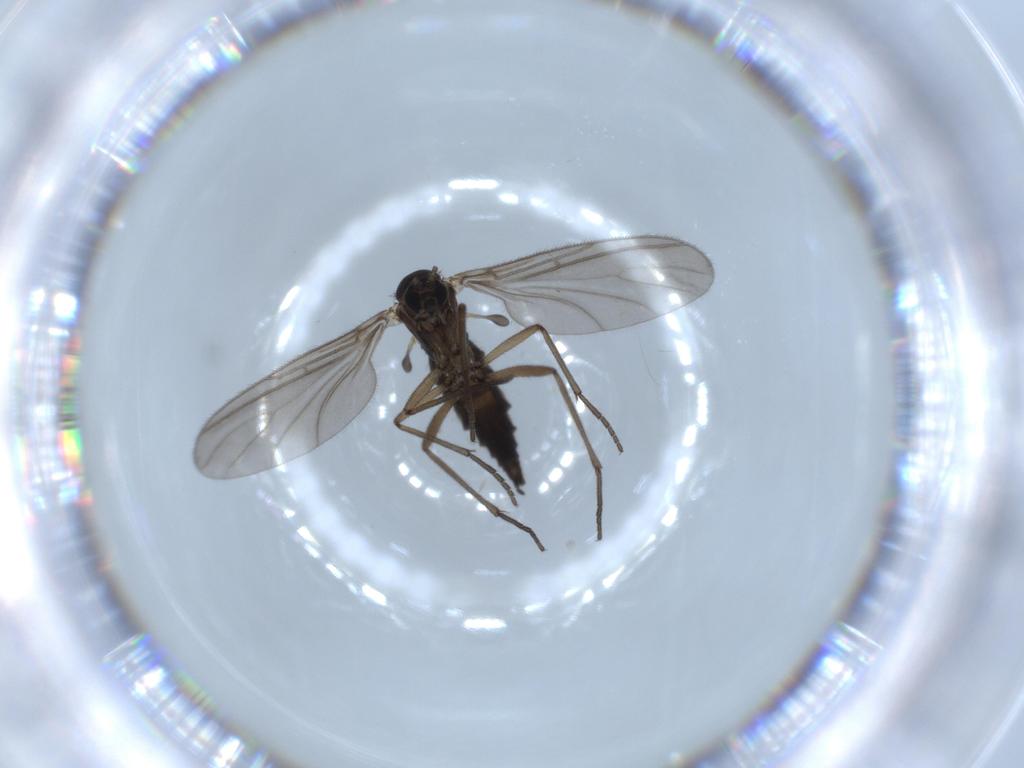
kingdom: Animalia
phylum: Arthropoda
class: Insecta
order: Diptera
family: Sciaridae
